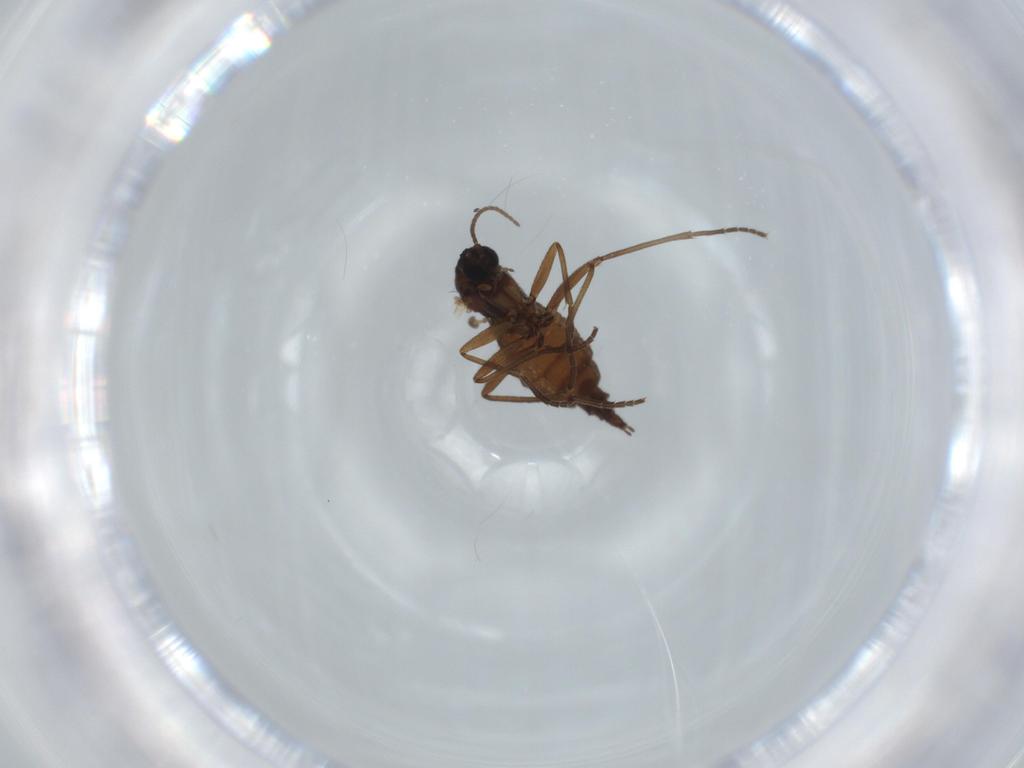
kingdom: Animalia
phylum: Arthropoda
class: Insecta
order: Diptera
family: Sciaridae
